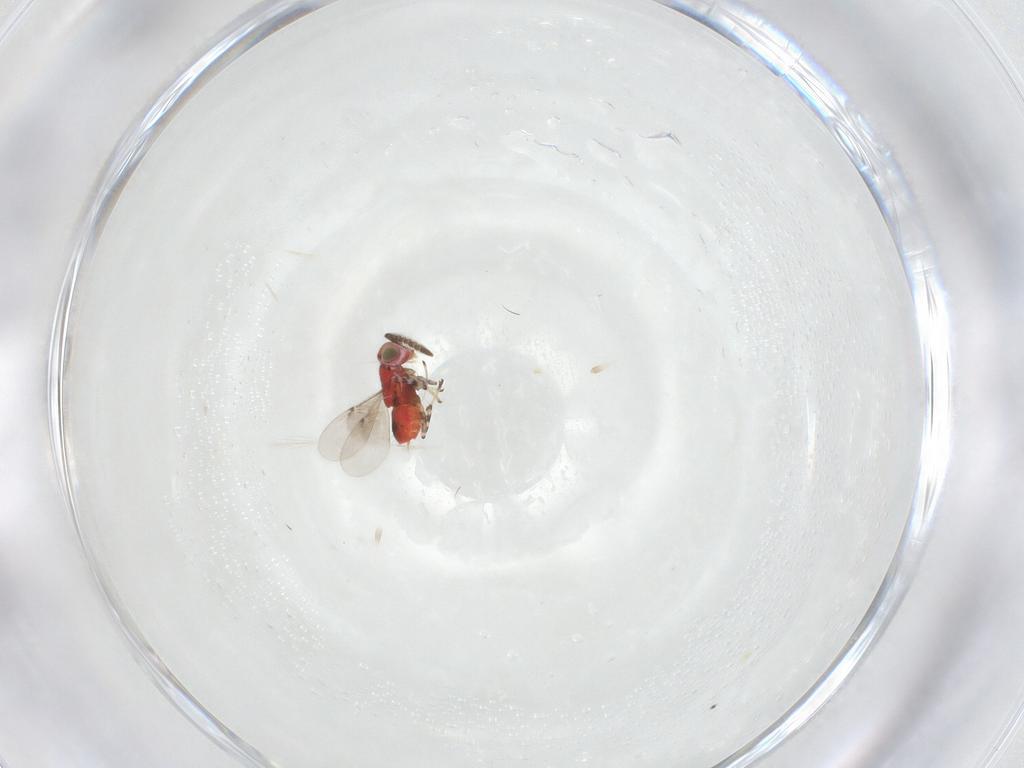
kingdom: Animalia
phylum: Arthropoda
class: Insecta
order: Hymenoptera
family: Encyrtidae
